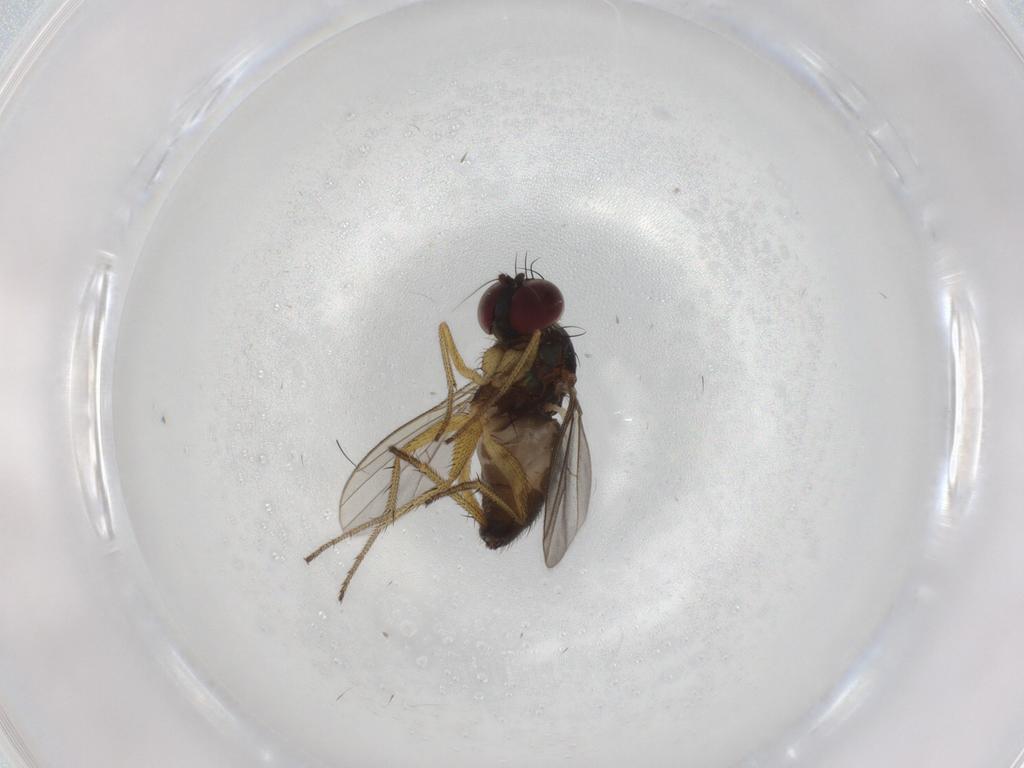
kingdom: Animalia
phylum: Arthropoda
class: Insecta
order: Diptera
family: Dolichopodidae
